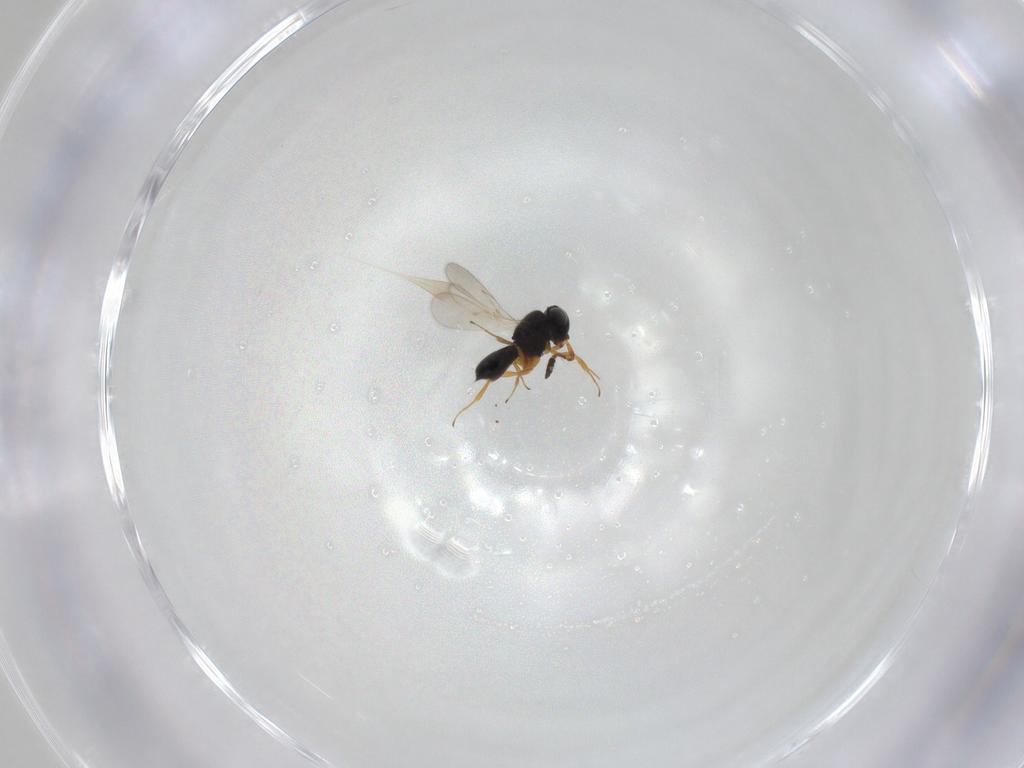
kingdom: Animalia
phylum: Arthropoda
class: Insecta
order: Hymenoptera
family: Scelionidae
